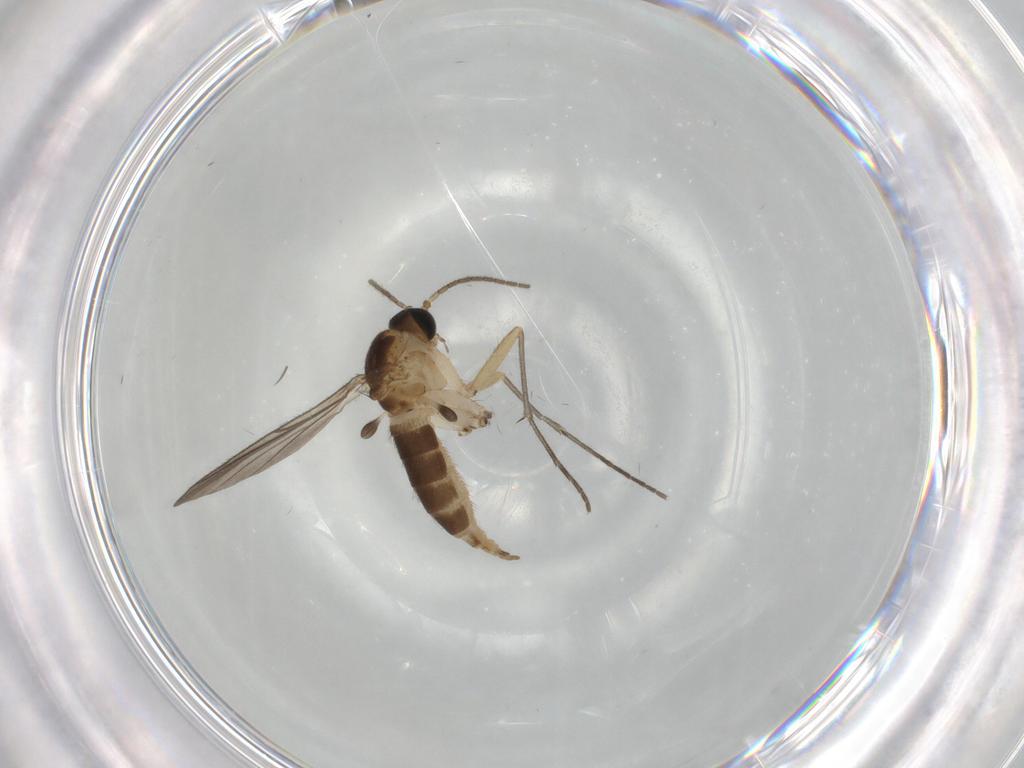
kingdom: Animalia
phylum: Arthropoda
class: Insecta
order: Diptera
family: Sciaridae
